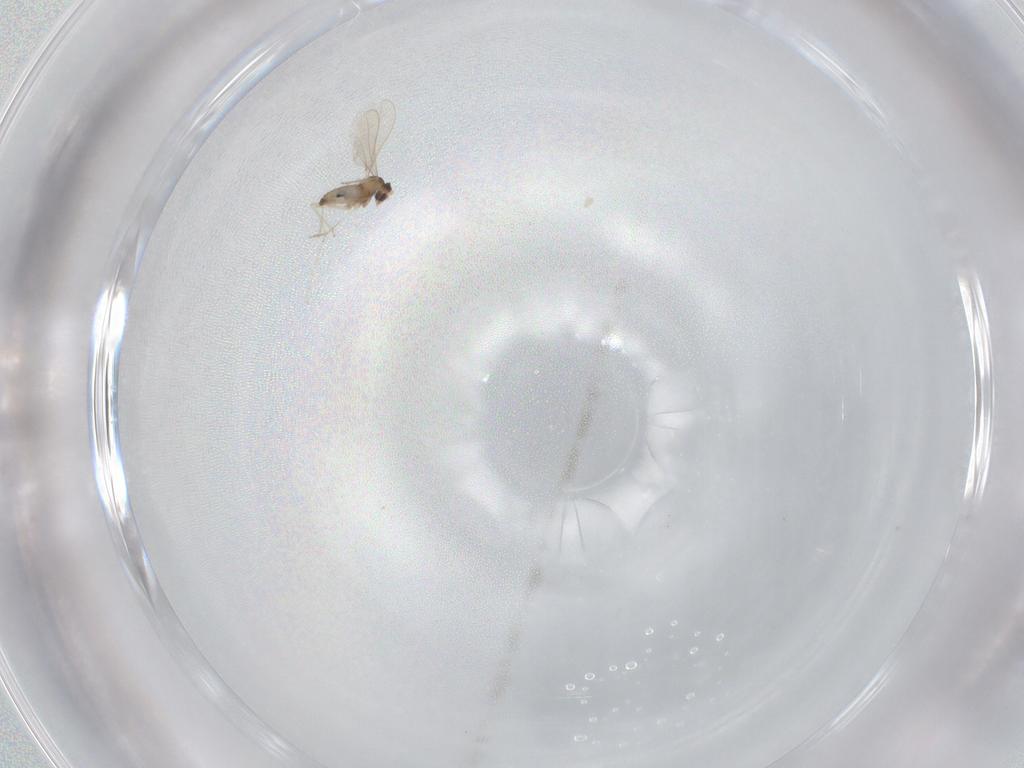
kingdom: Animalia
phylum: Arthropoda
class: Insecta
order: Diptera
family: Cecidomyiidae
